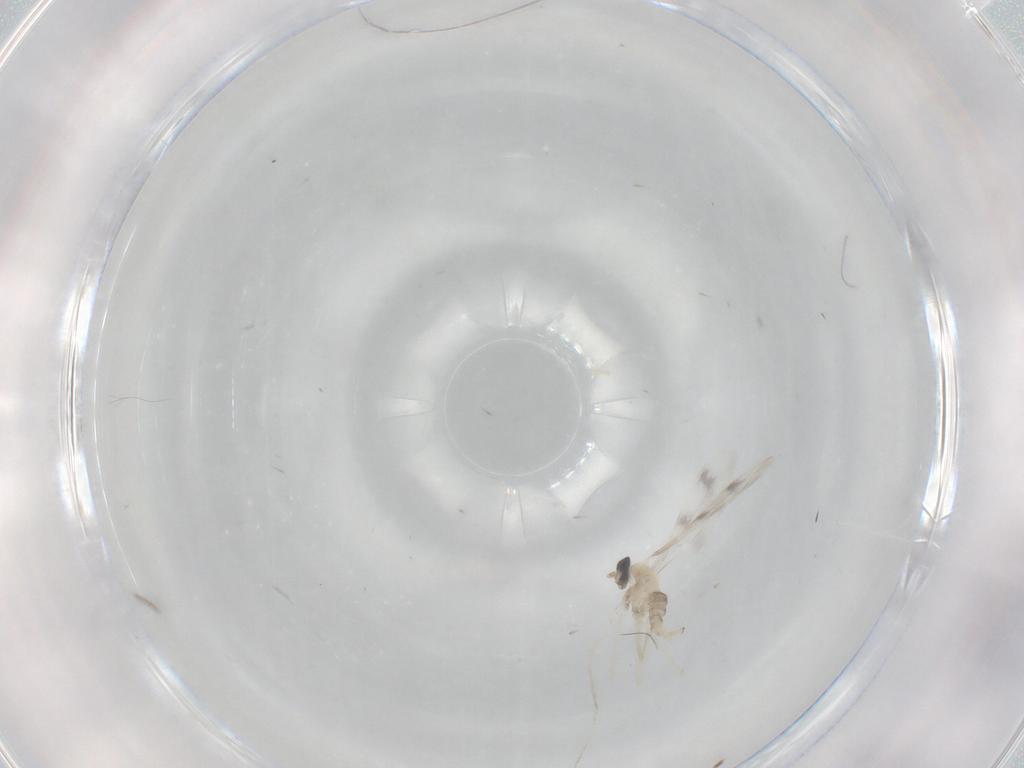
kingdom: Animalia
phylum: Arthropoda
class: Insecta
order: Diptera
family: Cecidomyiidae
